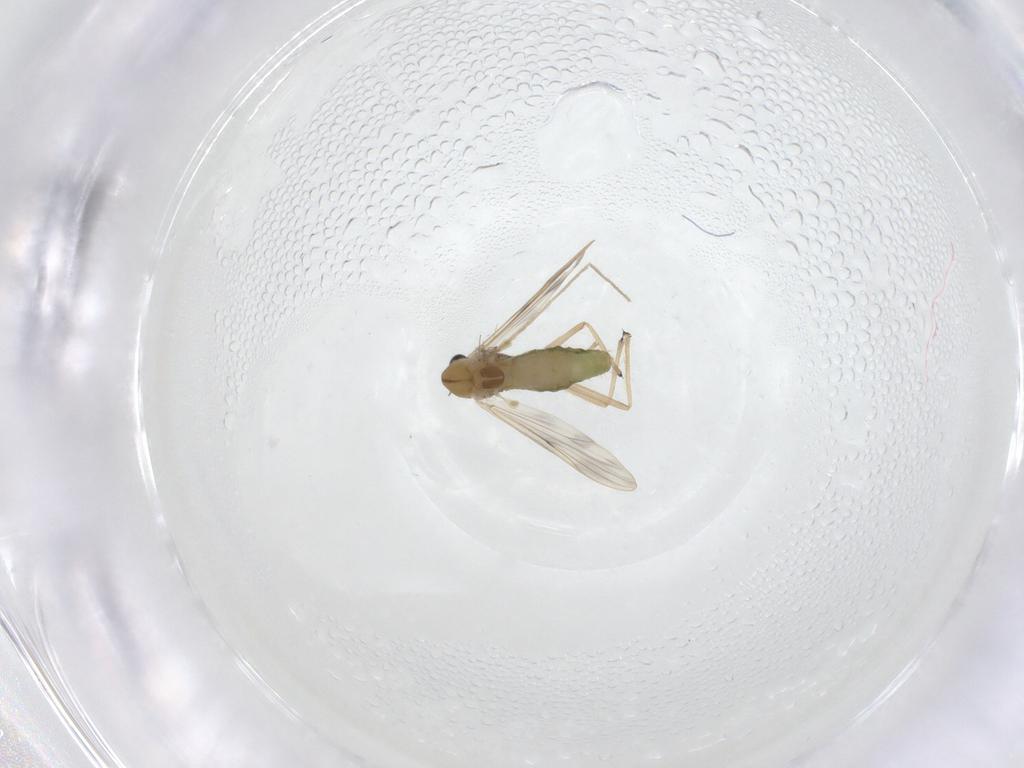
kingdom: Animalia
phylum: Arthropoda
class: Insecta
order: Diptera
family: Chironomidae
